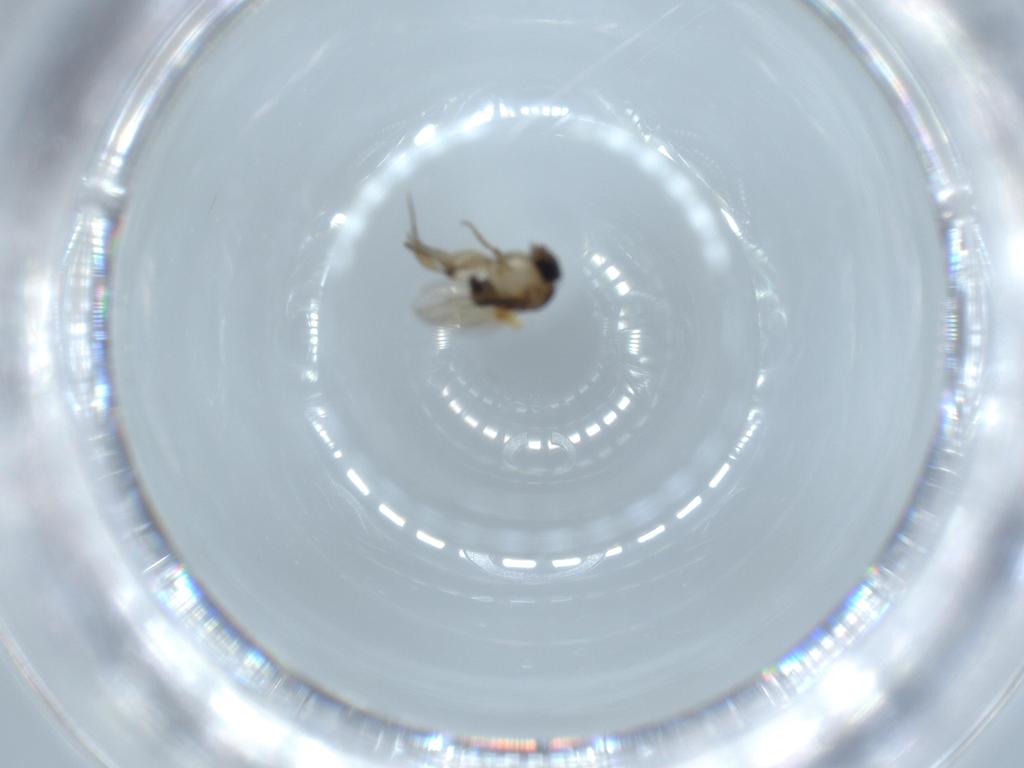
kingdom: Animalia
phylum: Arthropoda
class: Insecta
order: Diptera
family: Phoridae
